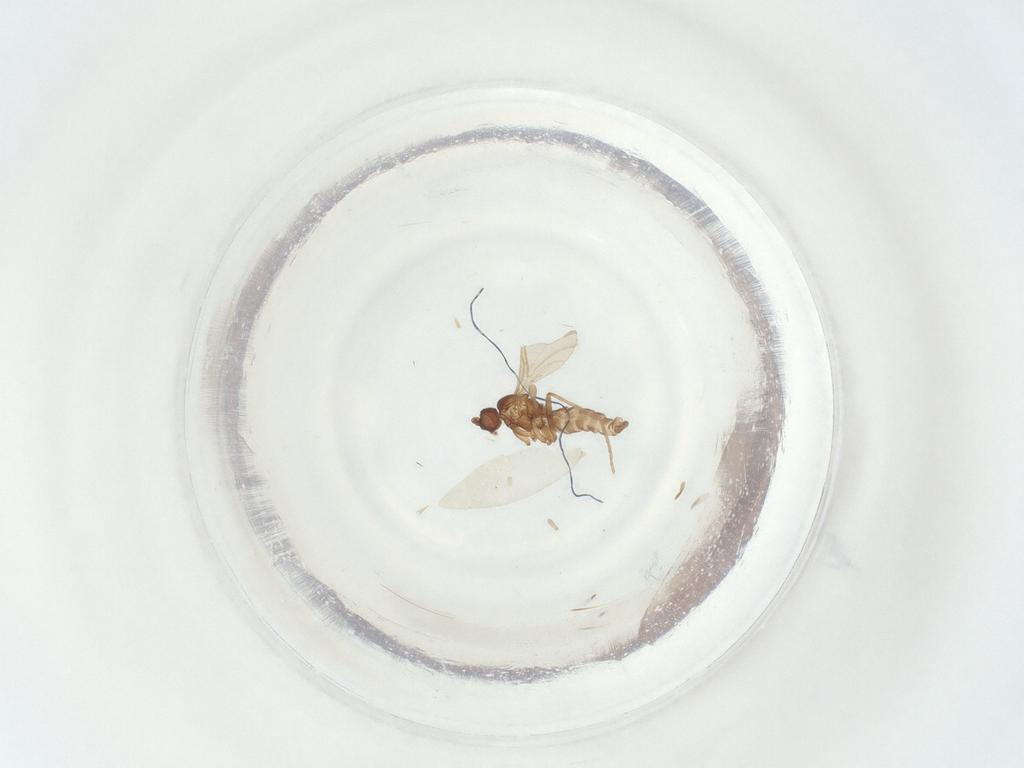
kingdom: Animalia
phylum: Arthropoda
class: Insecta
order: Diptera
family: Sciaridae
